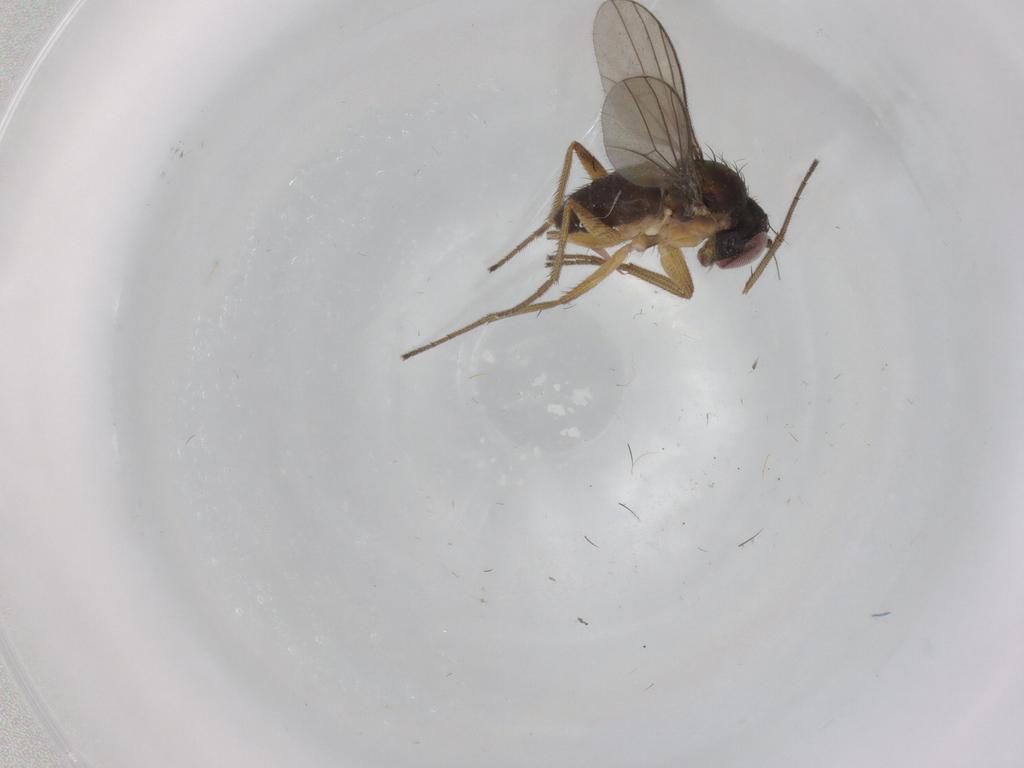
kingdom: Animalia
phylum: Arthropoda
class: Insecta
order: Diptera
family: Dolichopodidae
